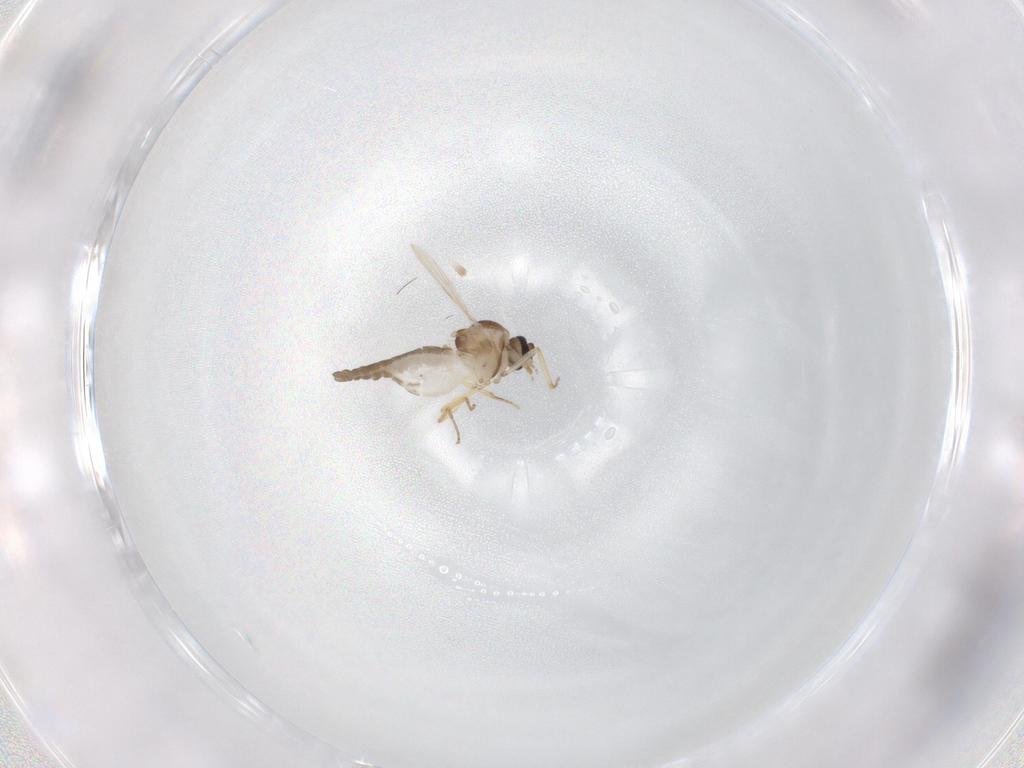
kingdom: Animalia
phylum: Arthropoda
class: Insecta
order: Diptera
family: Ceratopogonidae
